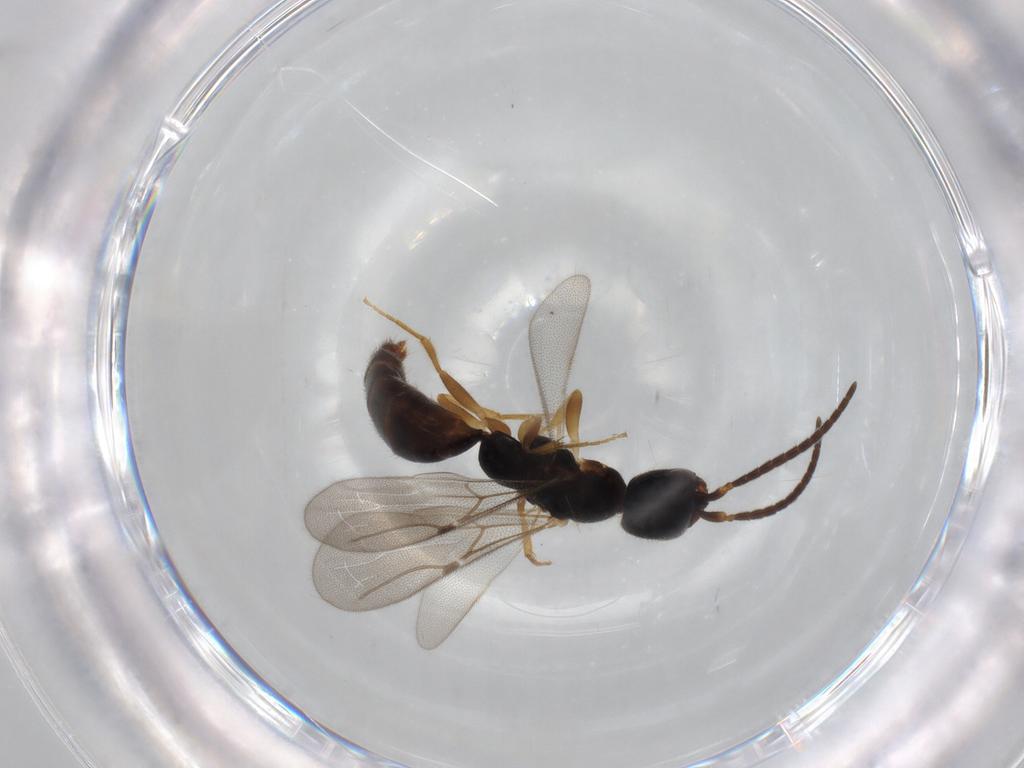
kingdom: Animalia
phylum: Arthropoda
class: Insecta
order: Hymenoptera
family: Bethylidae
